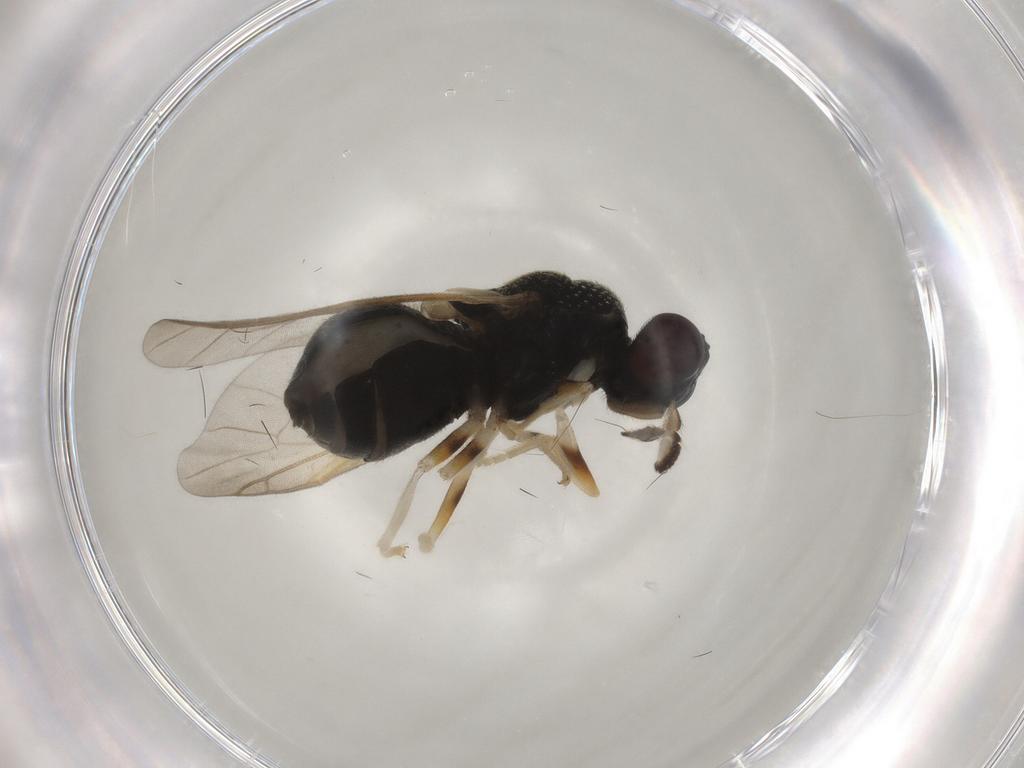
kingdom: Animalia
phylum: Arthropoda
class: Insecta
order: Diptera
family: Stratiomyidae
